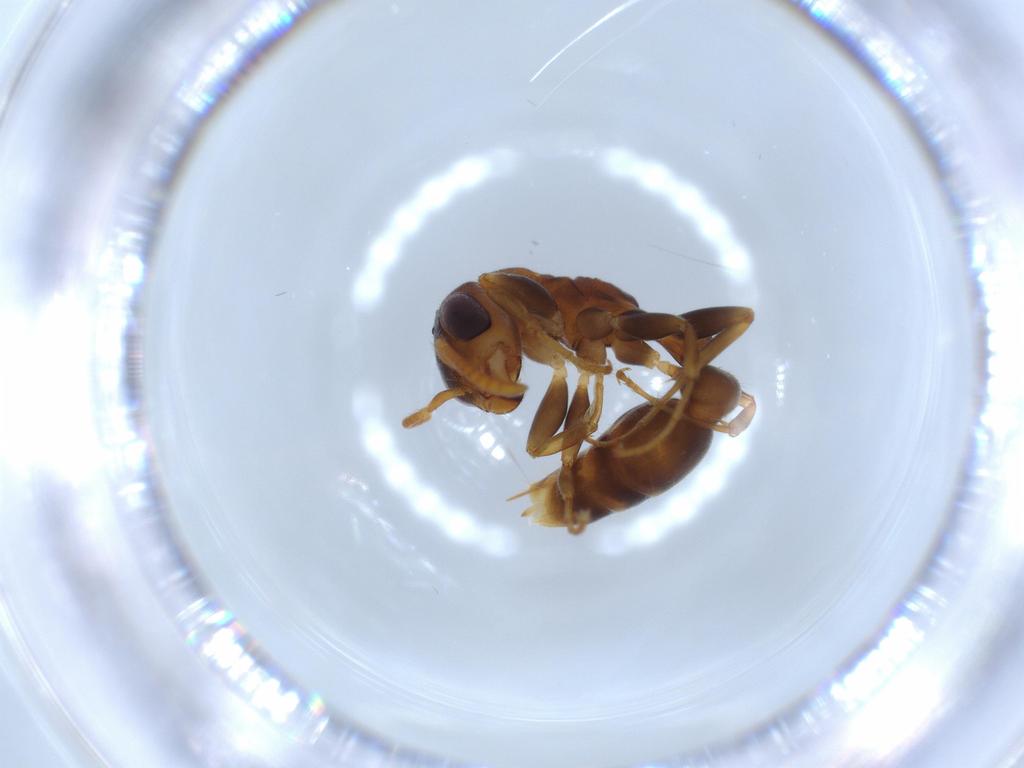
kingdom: Animalia
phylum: Arthropoda
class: Insecta
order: Hymenoptera
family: Formicidae
